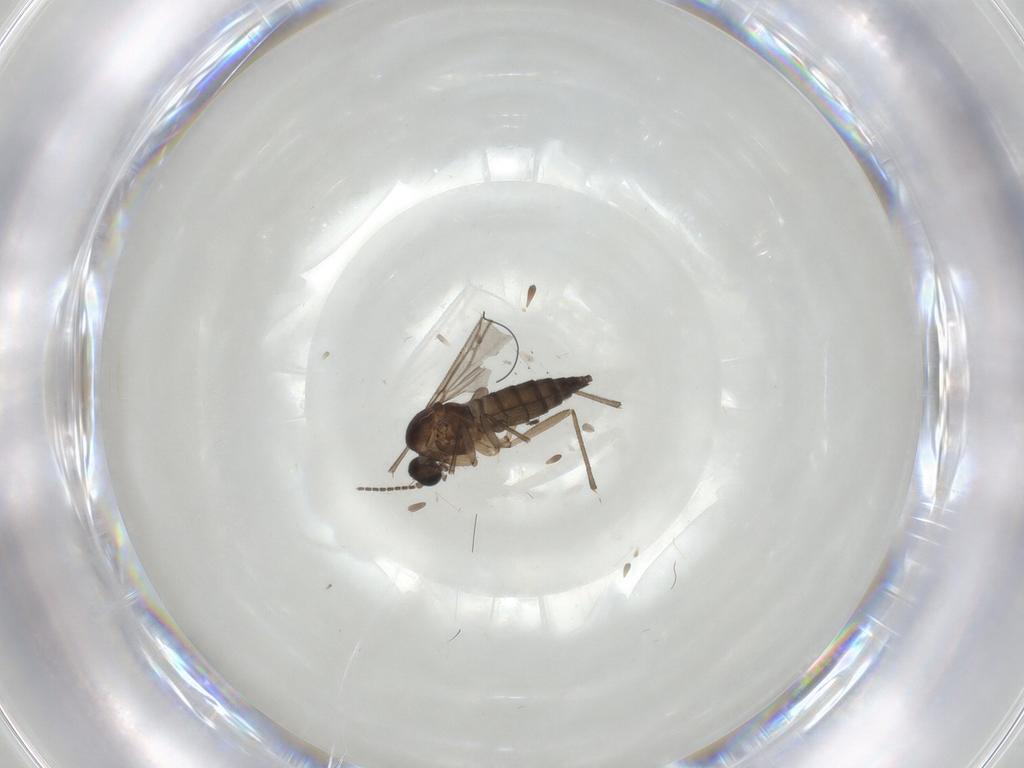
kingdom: Animalia
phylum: Arthropoda
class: Insecta
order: Diptera
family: Sciaridae
